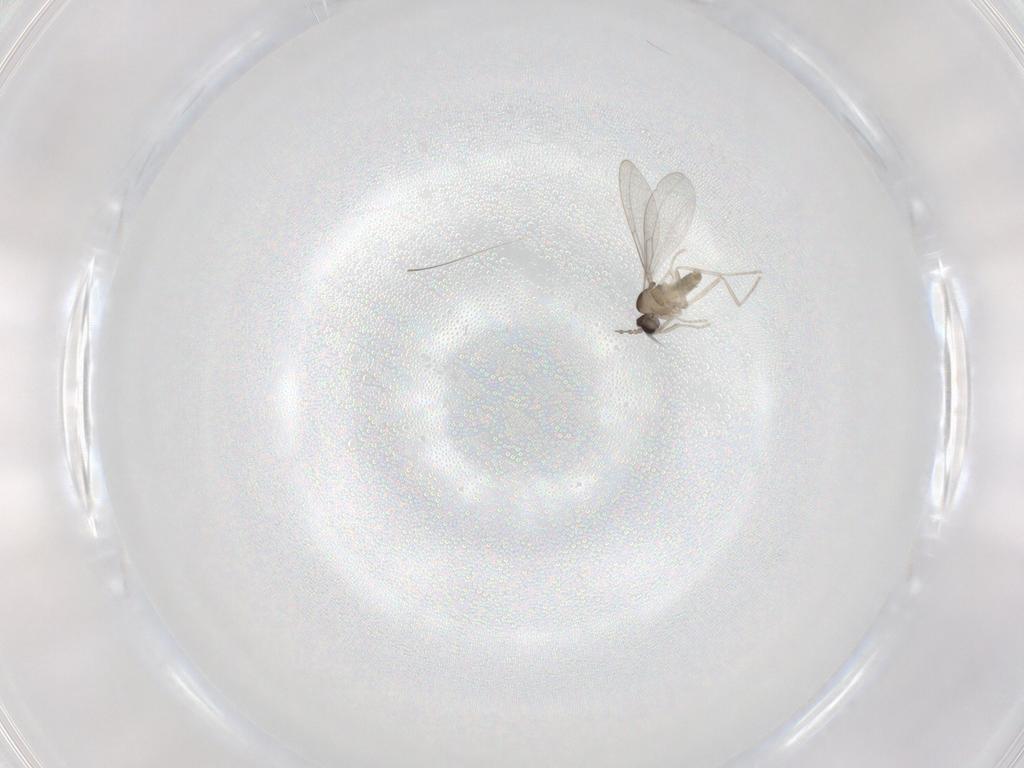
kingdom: Animalia
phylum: Arthropoda
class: Insecta
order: Diptera
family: Cecidomyiidae
